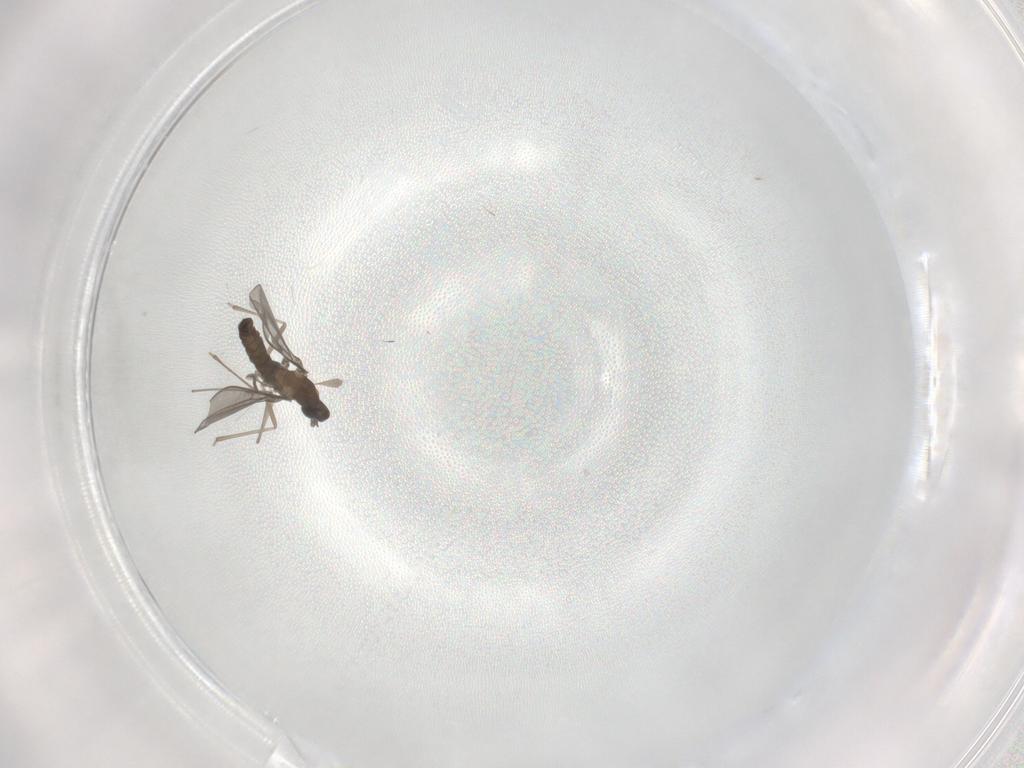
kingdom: Animalia
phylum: Arthropoda
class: Insecta
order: Diptera
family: Cecidomyiidae
